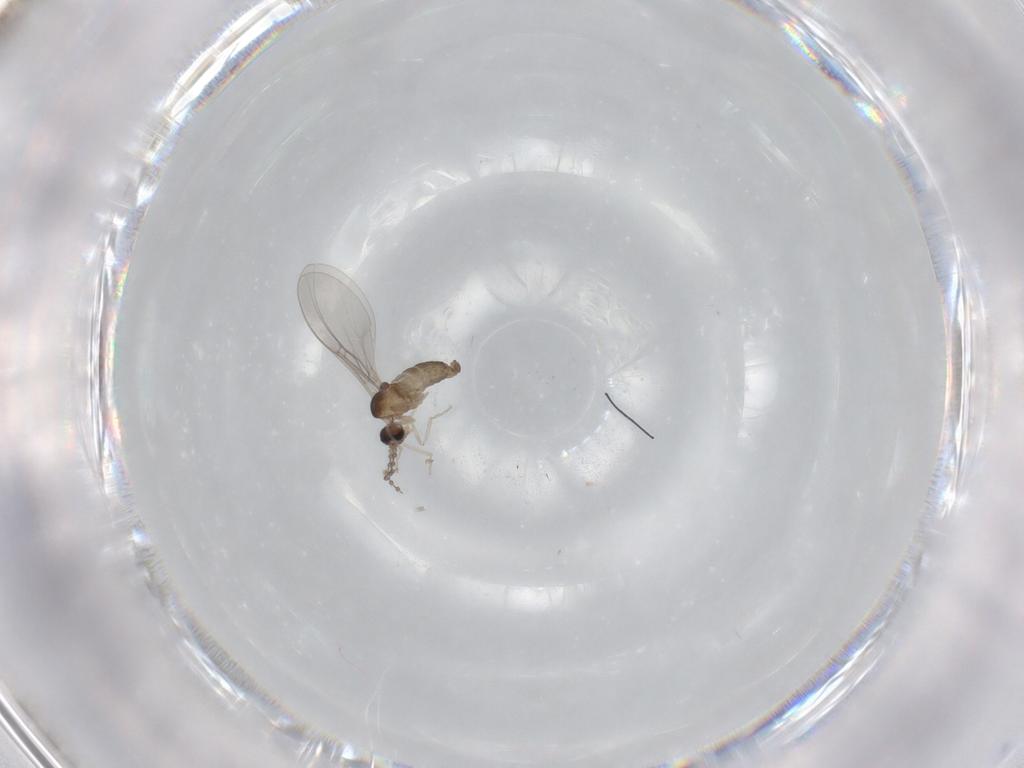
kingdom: Animalia
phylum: Arthropoda
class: Insecta
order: Diptera
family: Cecidomyiidae
